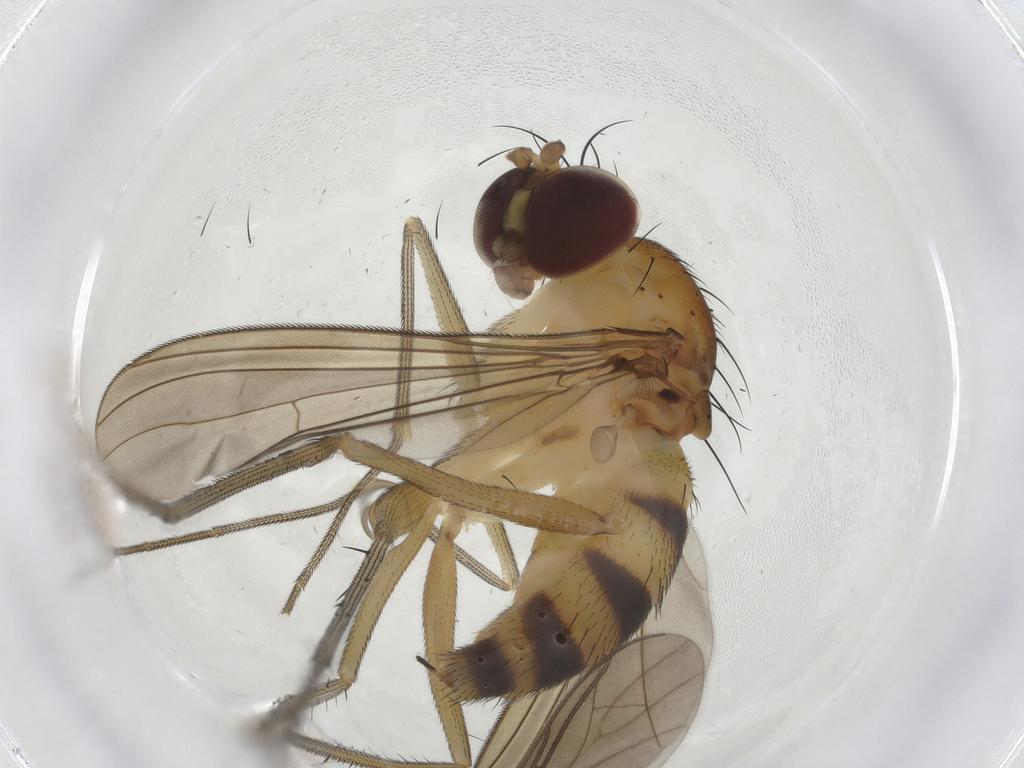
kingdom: Animalia
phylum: Arthropoda
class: Insecta
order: Diptera
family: Dolichopodidae
